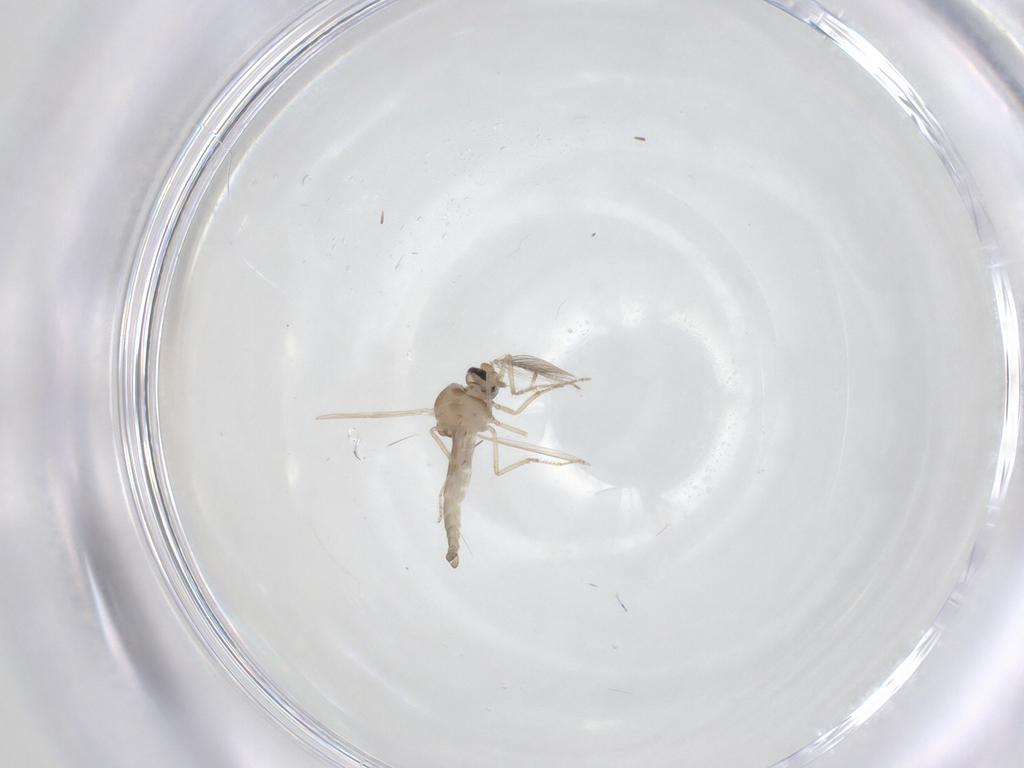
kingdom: Animalia
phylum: Arthropoda
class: Insecta
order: Diptera
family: Ceratopogonidae
